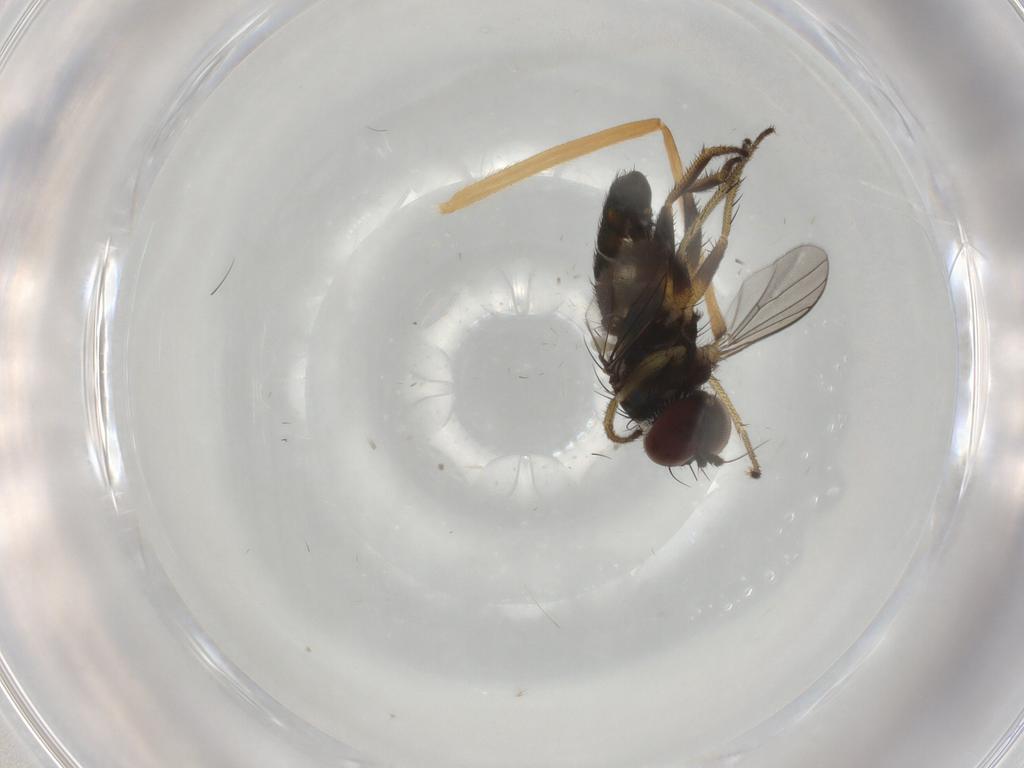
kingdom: Animalia
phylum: Arthropoda
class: Insecta
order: Diptera
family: Dolichopodidae
